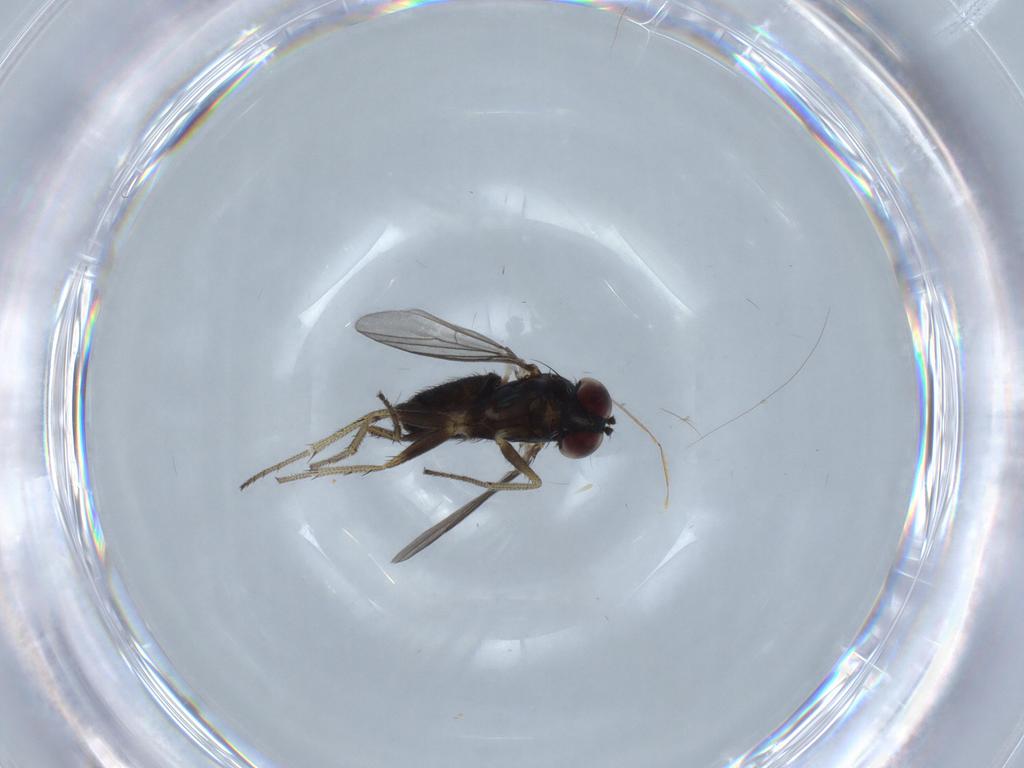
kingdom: Animalia
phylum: Arthropoda
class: Insecta
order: Diptera
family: Dolichopodidae
